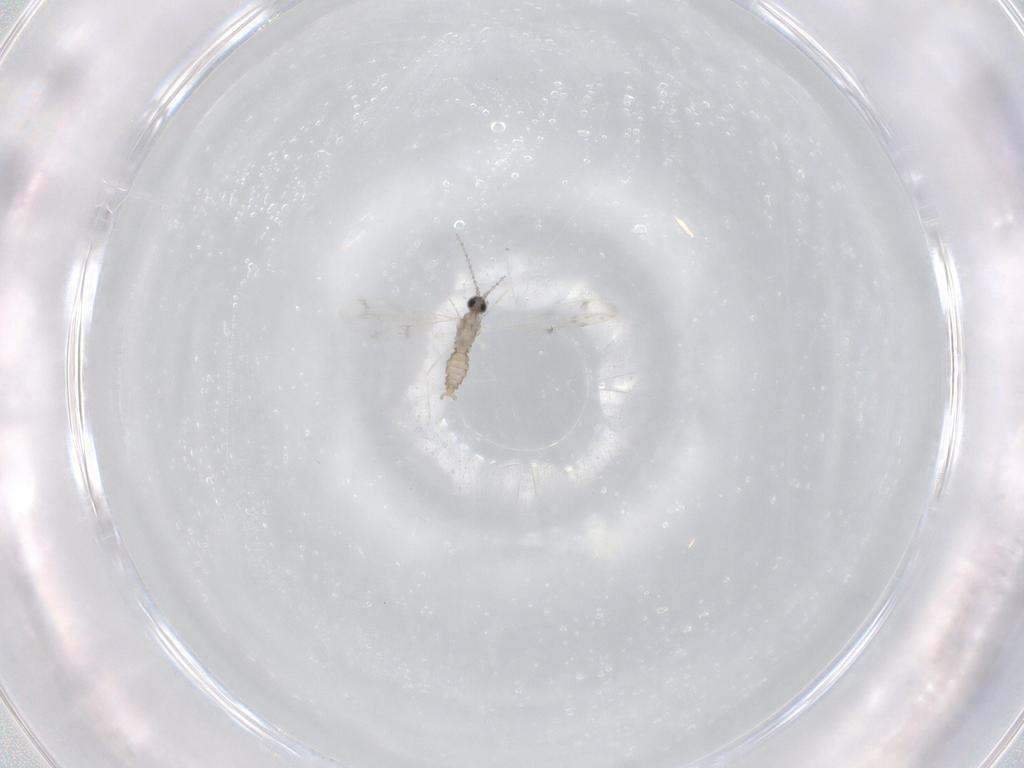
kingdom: Animalia
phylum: Arthropoda
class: Insecta
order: Diptera
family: Cecidomyiidae
